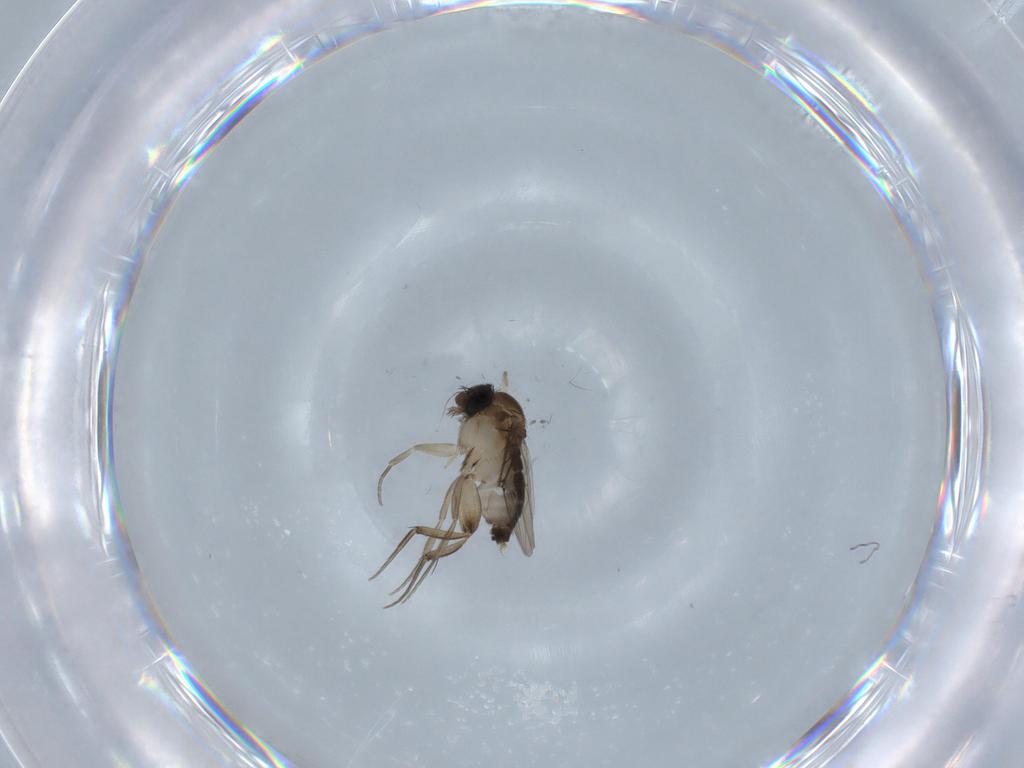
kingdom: Animalia
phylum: Arthropoda
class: Insecta
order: Diptera
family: Phoridae
